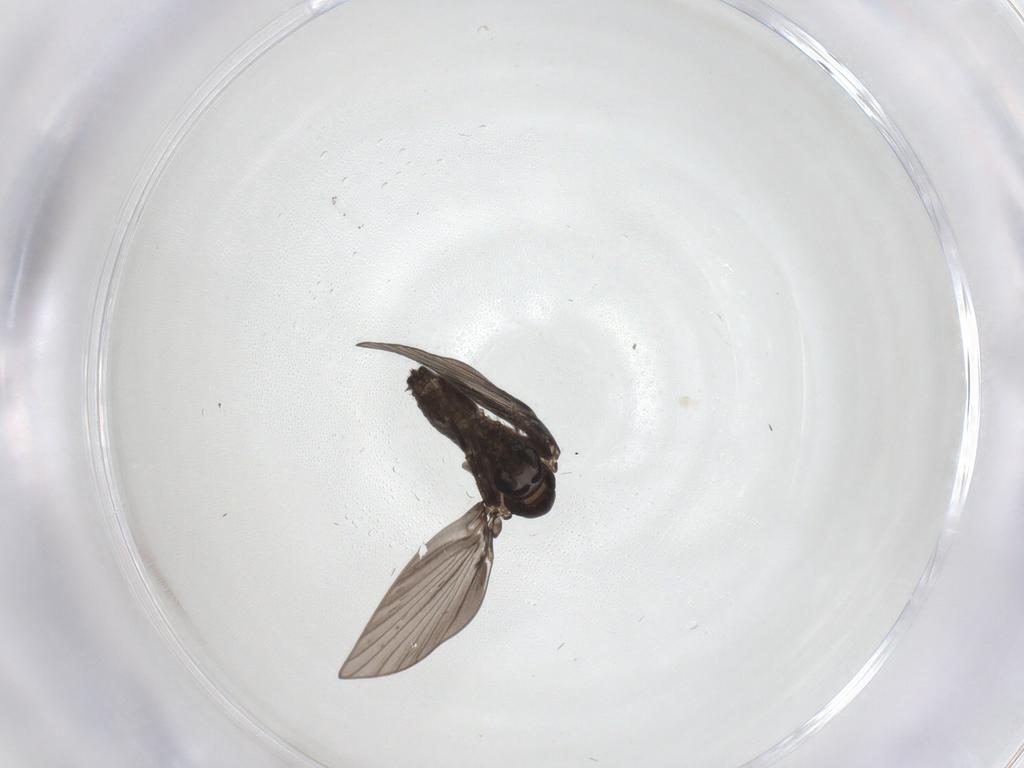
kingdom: Animalia
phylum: Arthropoda
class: Insecta
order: Diptera
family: Psychodidae
